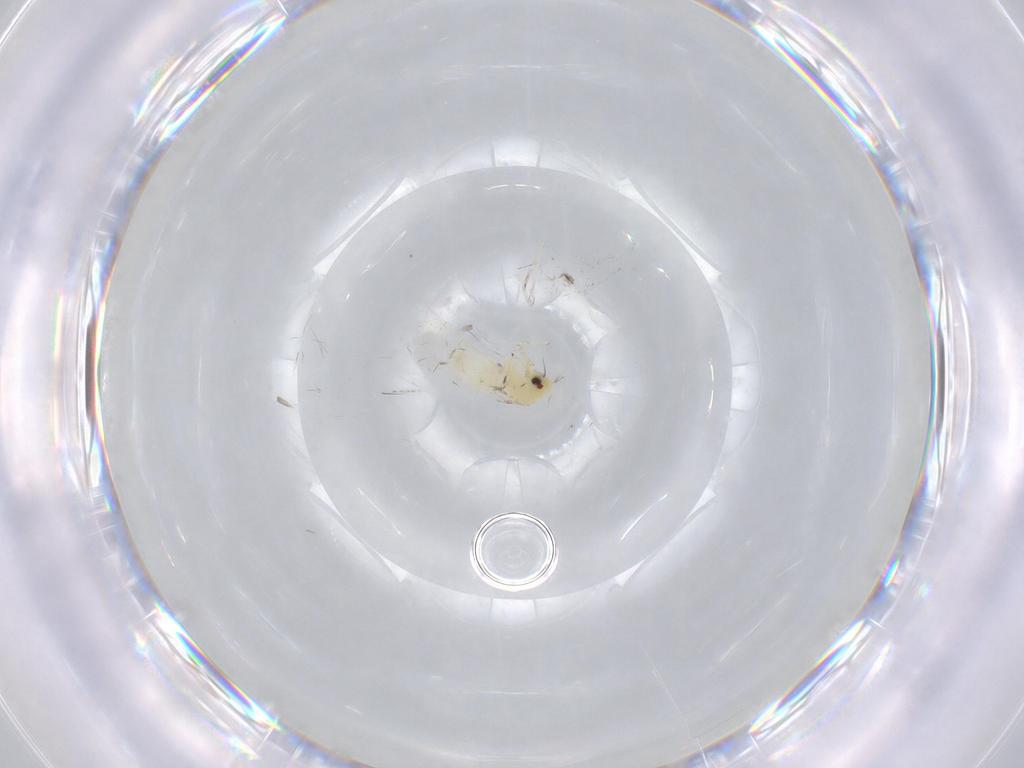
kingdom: Animalia
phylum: Arthropoda
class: Insecta
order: Hemiptera
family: Aleyrodidae
